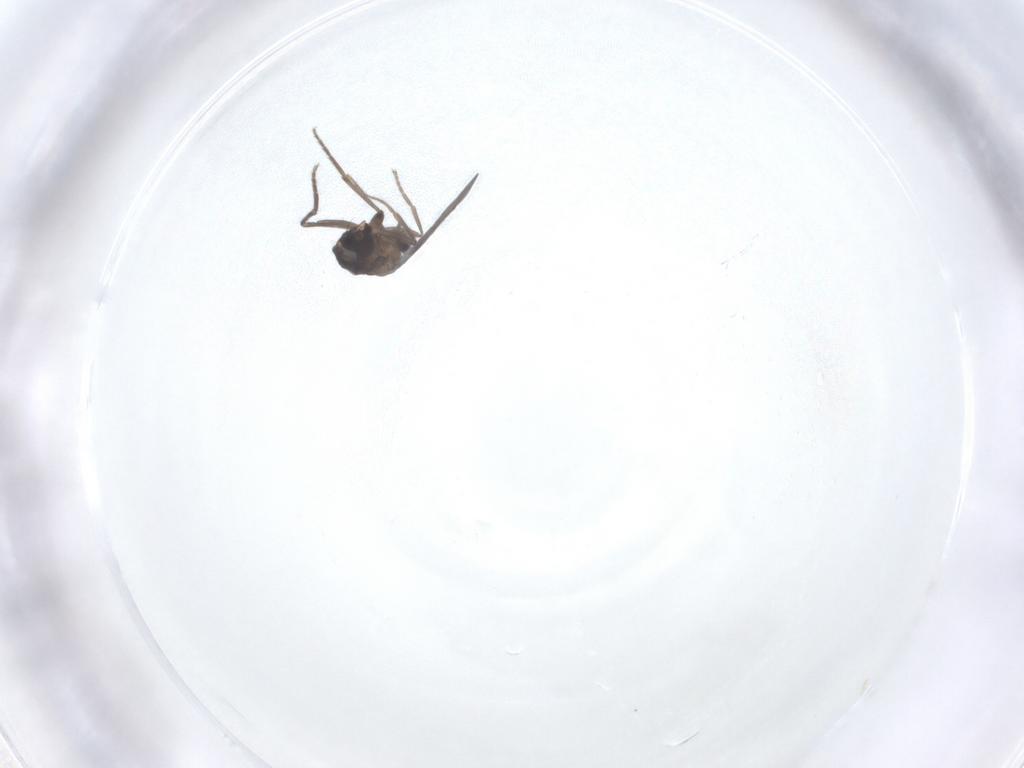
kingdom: Animalia
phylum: Arthropoda
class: Insecta
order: Diptera
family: Phoridae
